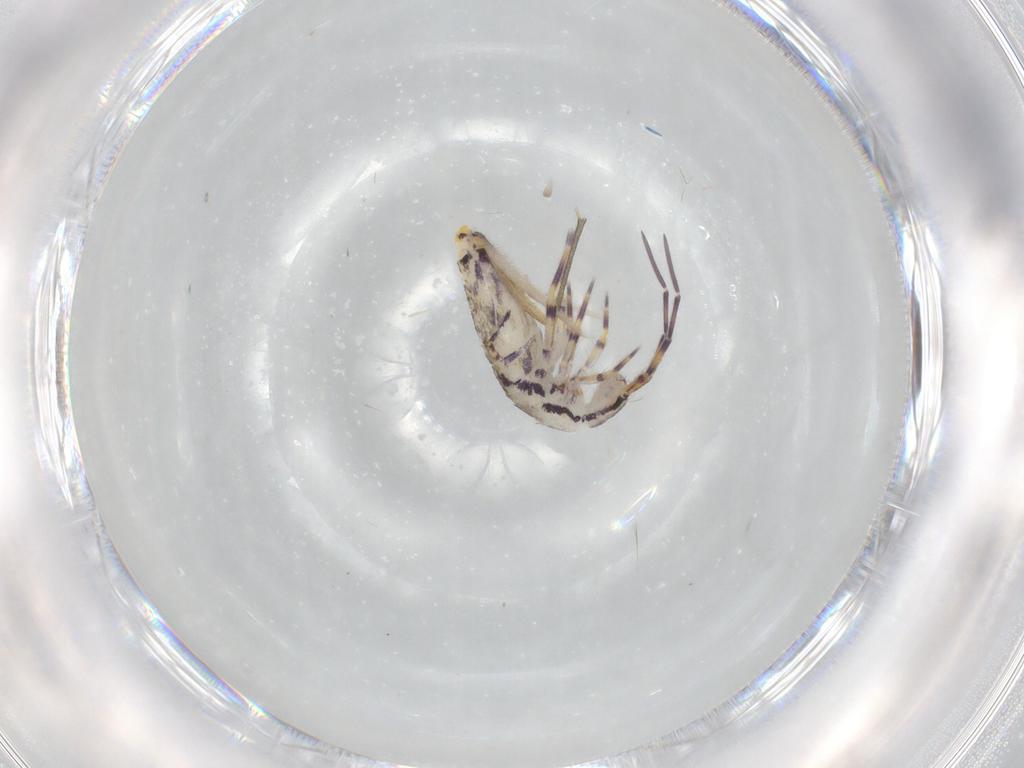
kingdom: Animalia
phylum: Arthropoda
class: Collembola
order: Entomobryomorpha
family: Entomobryidae
